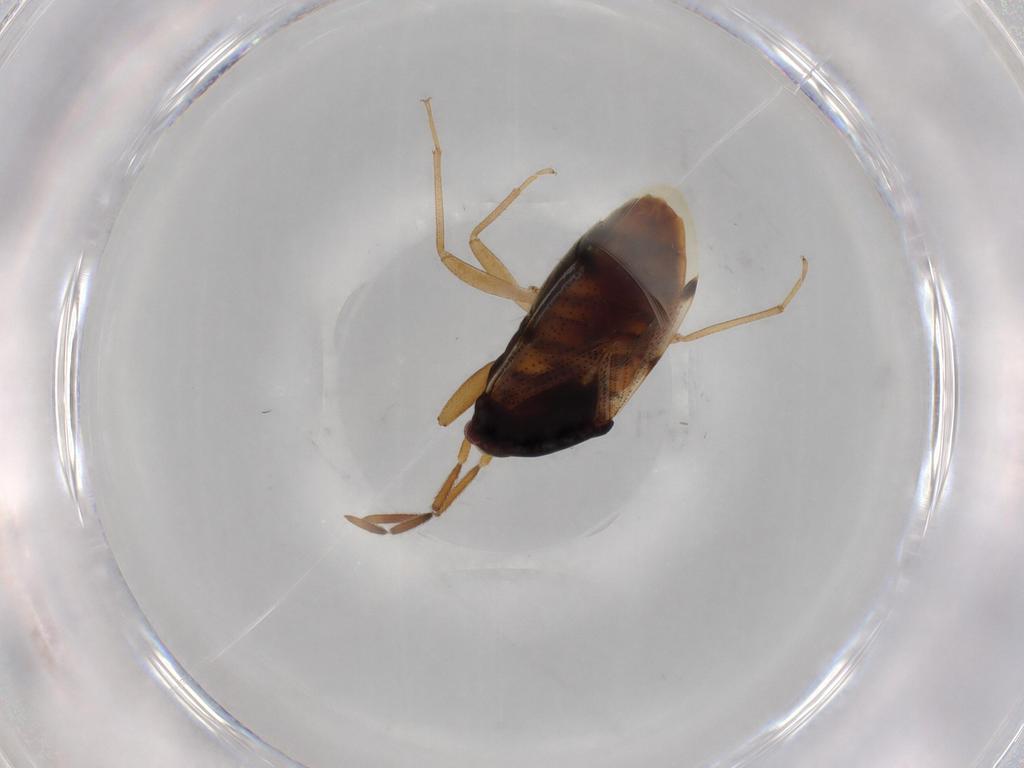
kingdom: Animalia
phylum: Arthropoda
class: Insecta
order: Hemiptera
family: Rhyparochromidae
